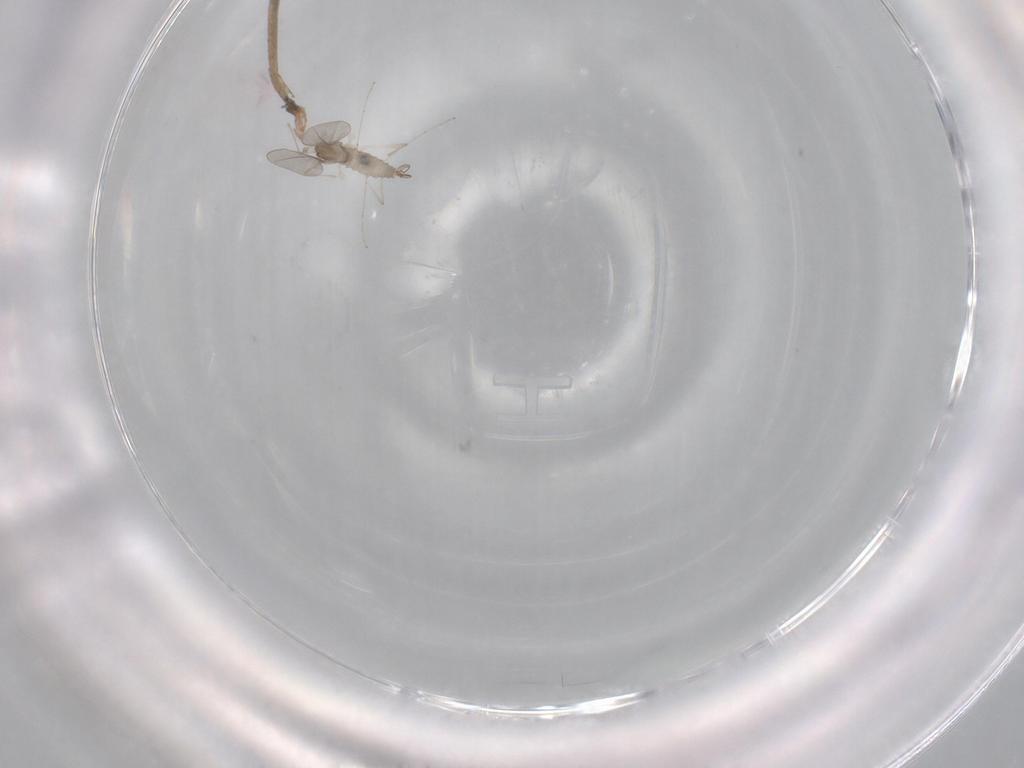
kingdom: Animalia
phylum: Arthropoda
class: Insecta
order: Diptera
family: Cecidomyiidae
